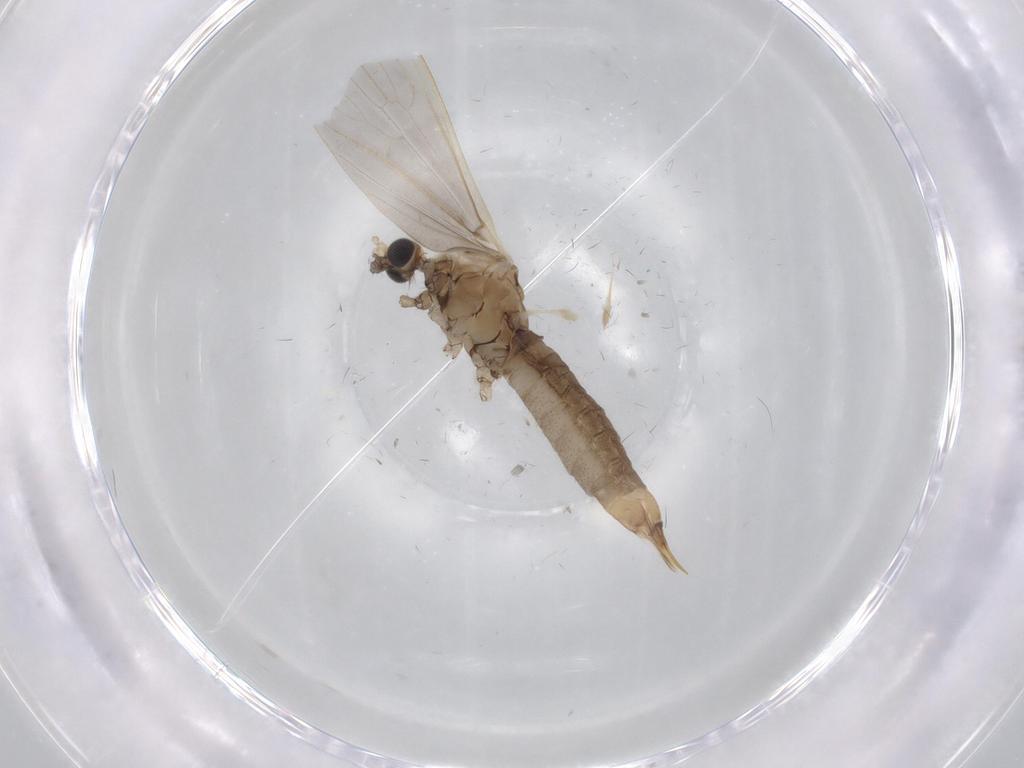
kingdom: Animalia
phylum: Arthropoda
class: Insecta
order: Diptera
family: Limoniidae
